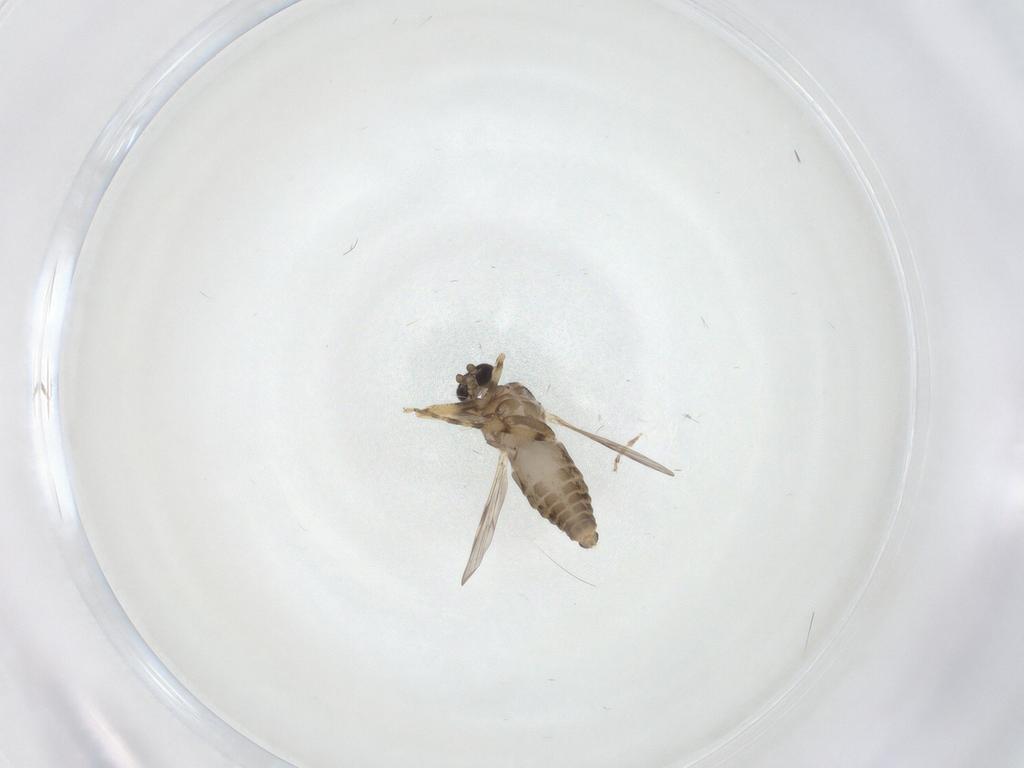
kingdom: Animalia
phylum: Arthropoda
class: Insecta
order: Diptera
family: Ceratopogonidae
